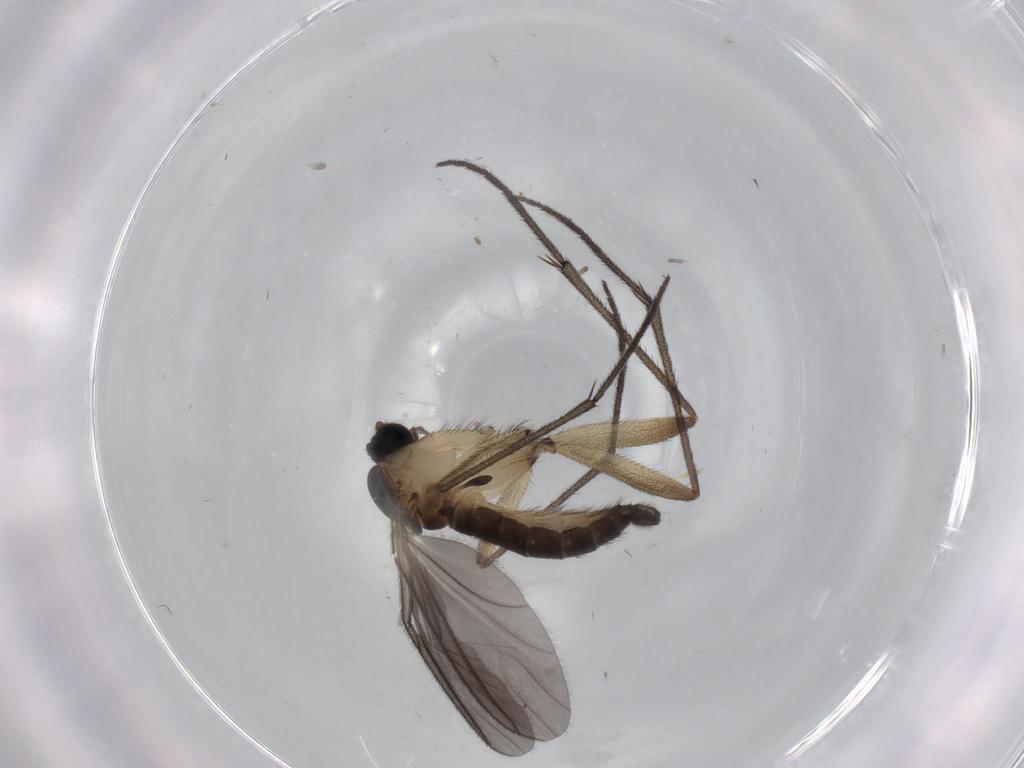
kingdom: Animalia
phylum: Arthropoda
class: Insecta
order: Diptera
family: Sciaridae
